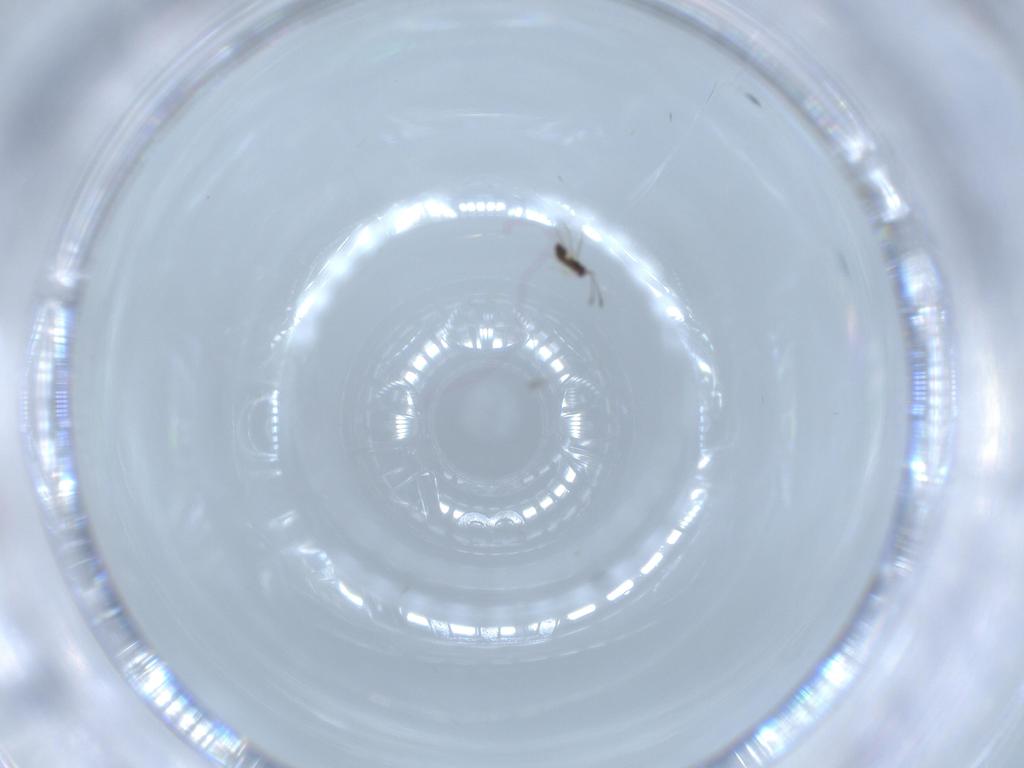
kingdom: Animalia
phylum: Arthropoda
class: Insecta
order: Hymenoptera
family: Mymaridae
